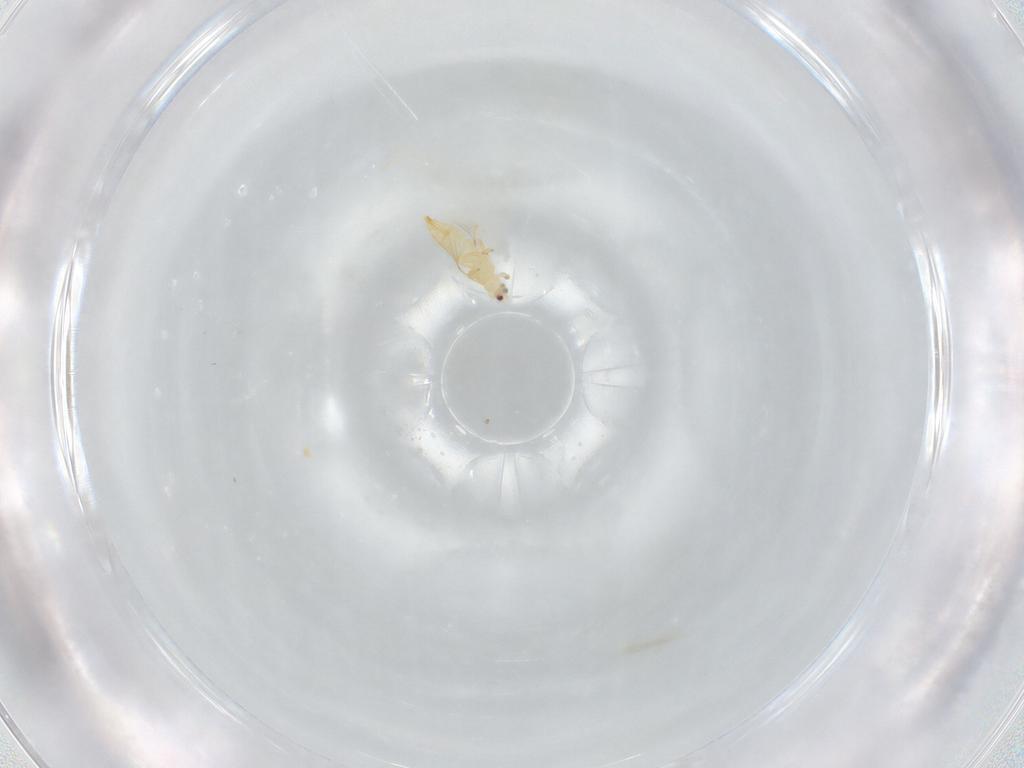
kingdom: Animalia
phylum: Arthropoda
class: Insecta
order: Thysanoptera
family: Thripidae
